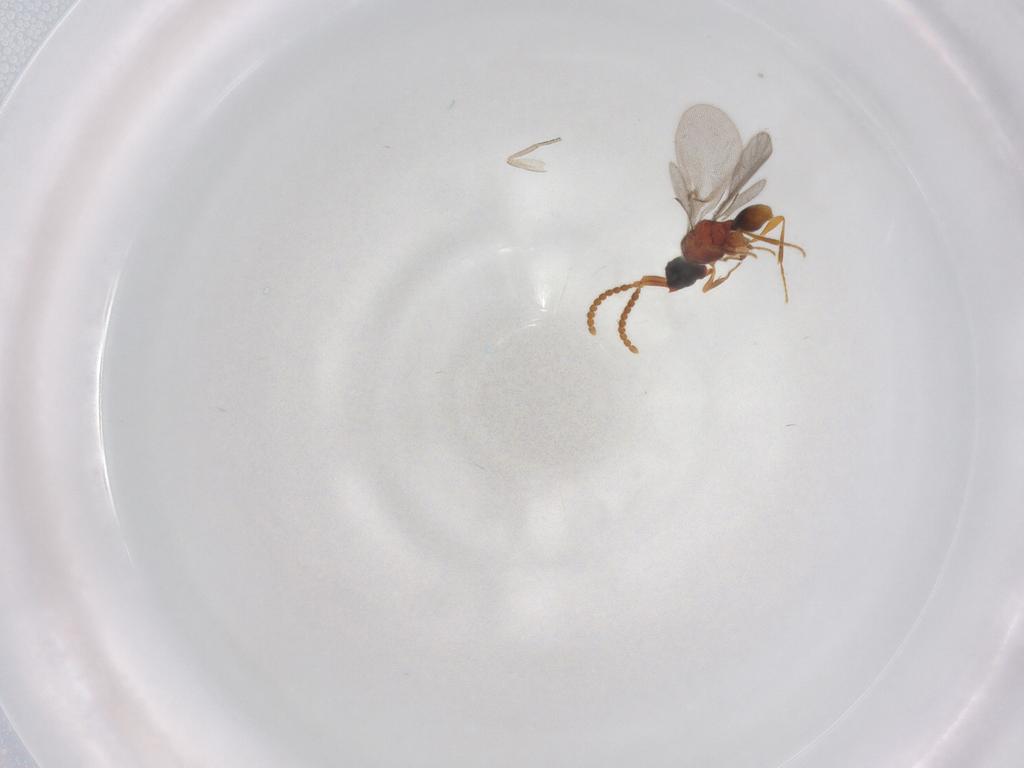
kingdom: Animalia
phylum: Arthropoda
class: Insecta
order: Hymenoptera
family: Diapriidae
